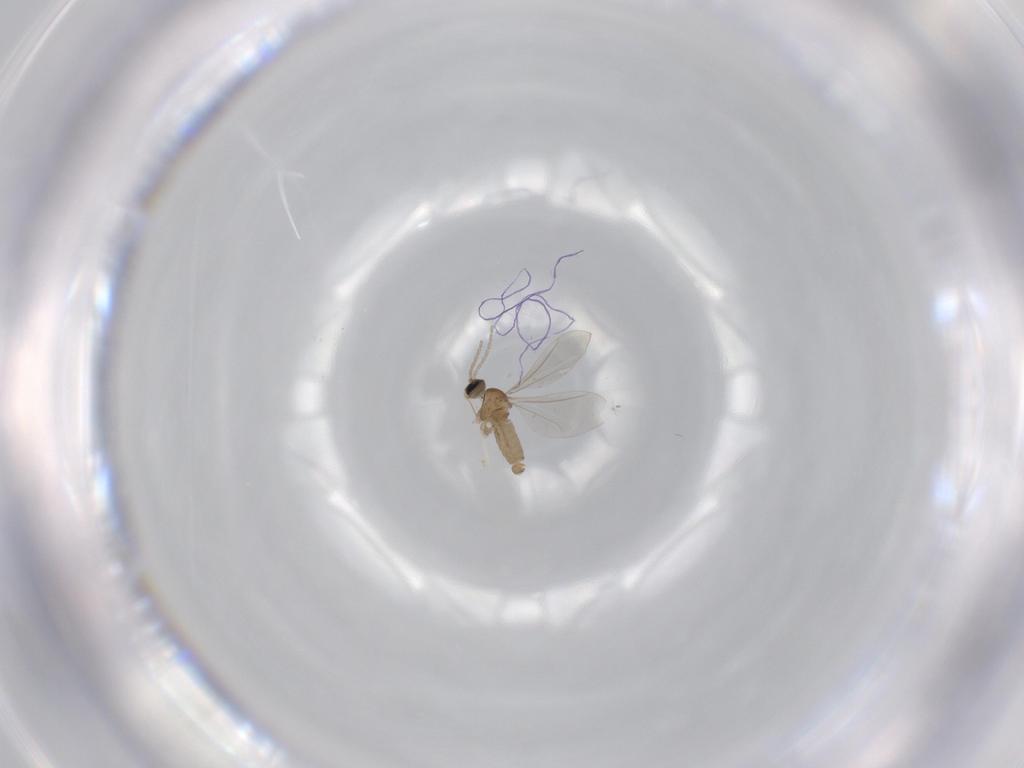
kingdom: Animalia
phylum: Arthropoda
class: Insecta
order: Diptera
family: Cecidomyiidae
